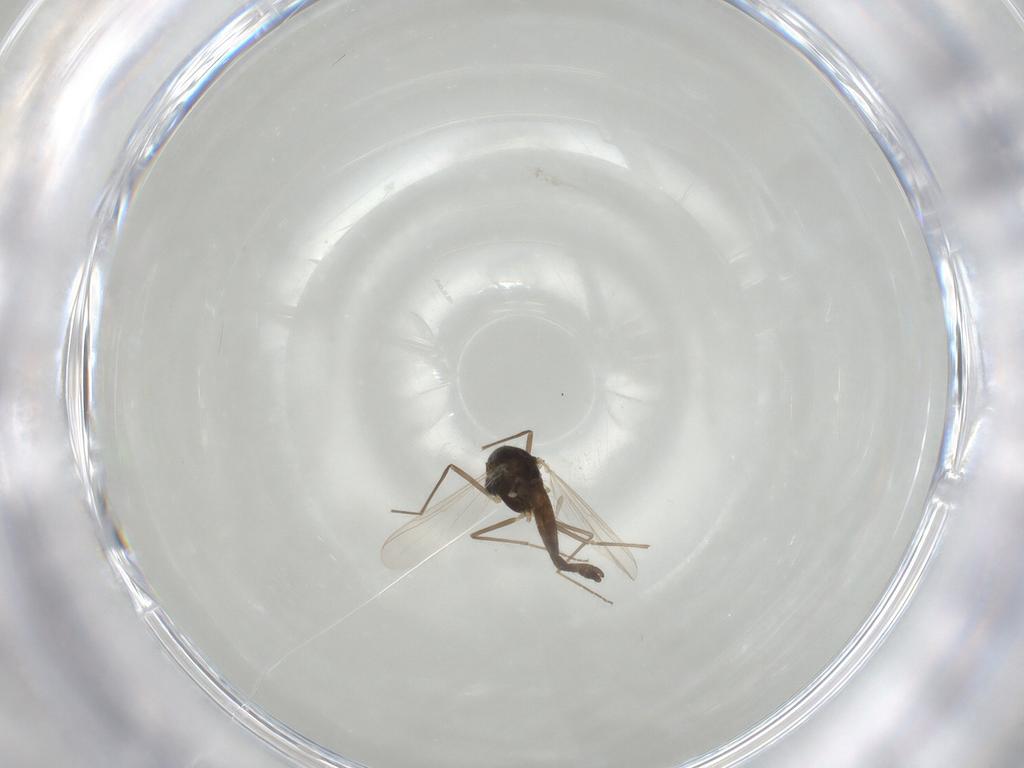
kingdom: Animalia
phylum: Arthropoda
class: Insecta
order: Diptera
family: Chironomidae
